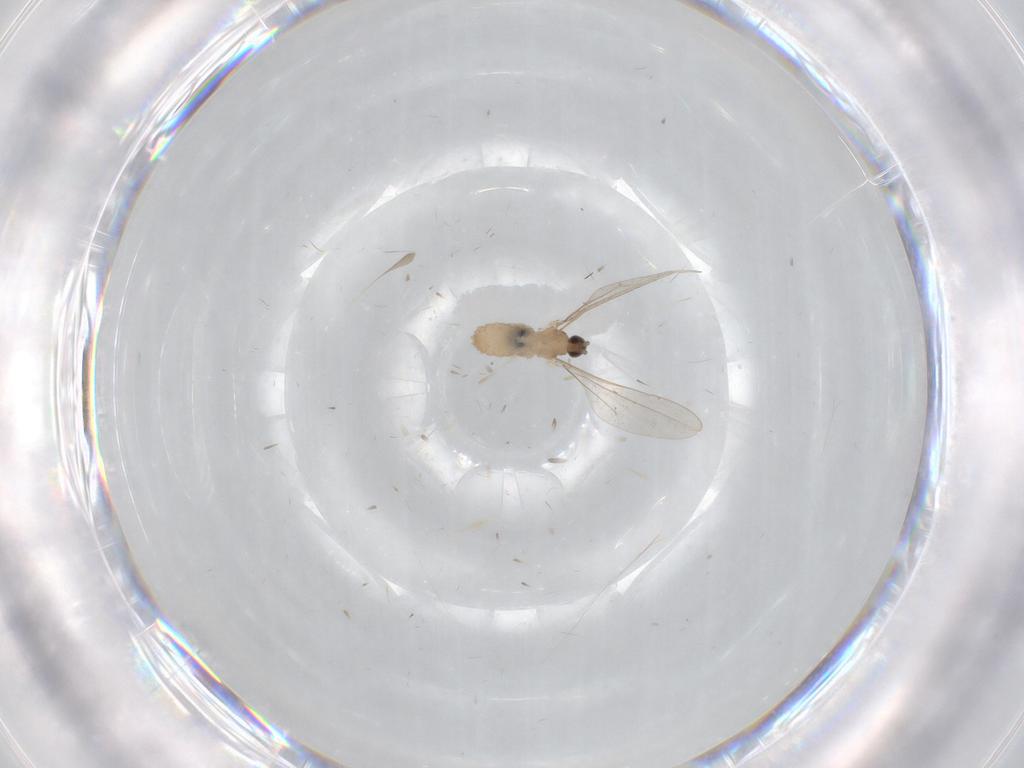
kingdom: Animalia
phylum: Arthropoda
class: Insecta
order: Diptera
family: Cecidomyiidae
